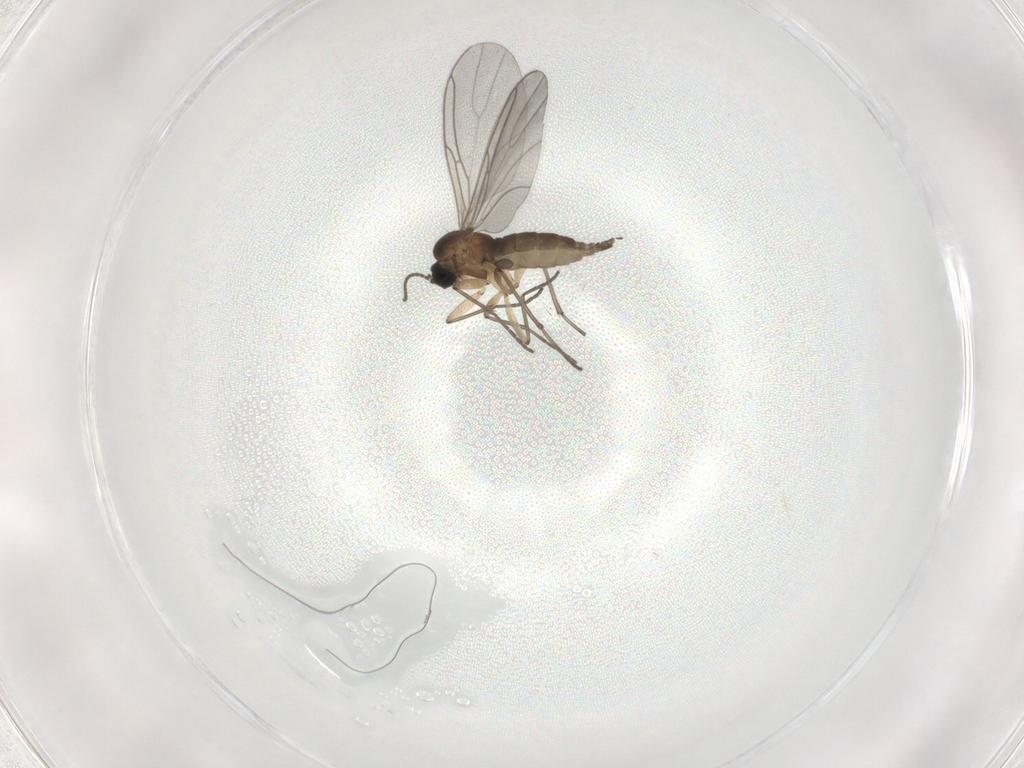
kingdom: Animalia
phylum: Arthropoda
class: Insecta
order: Diptera
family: Sciaridae
